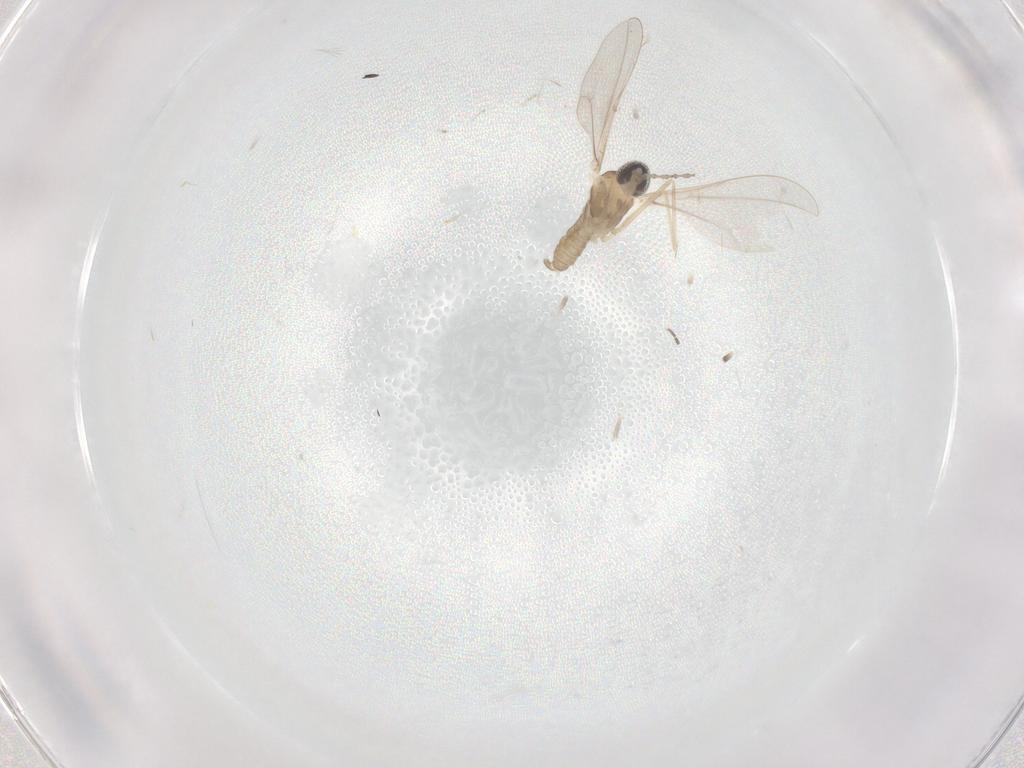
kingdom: Animalia
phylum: Arthropoda
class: Insecta
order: Diptera
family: Cecidomyiidae
